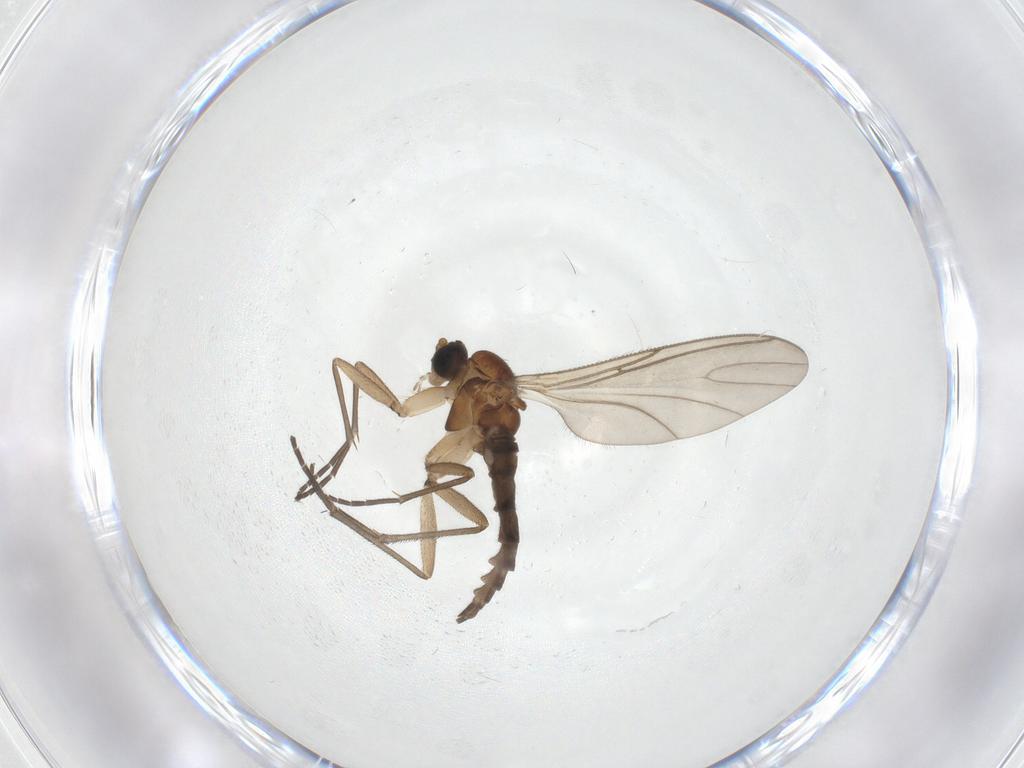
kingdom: Animalia
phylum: Arthropoda
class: Insecta
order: Diptera
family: Sciaridae
